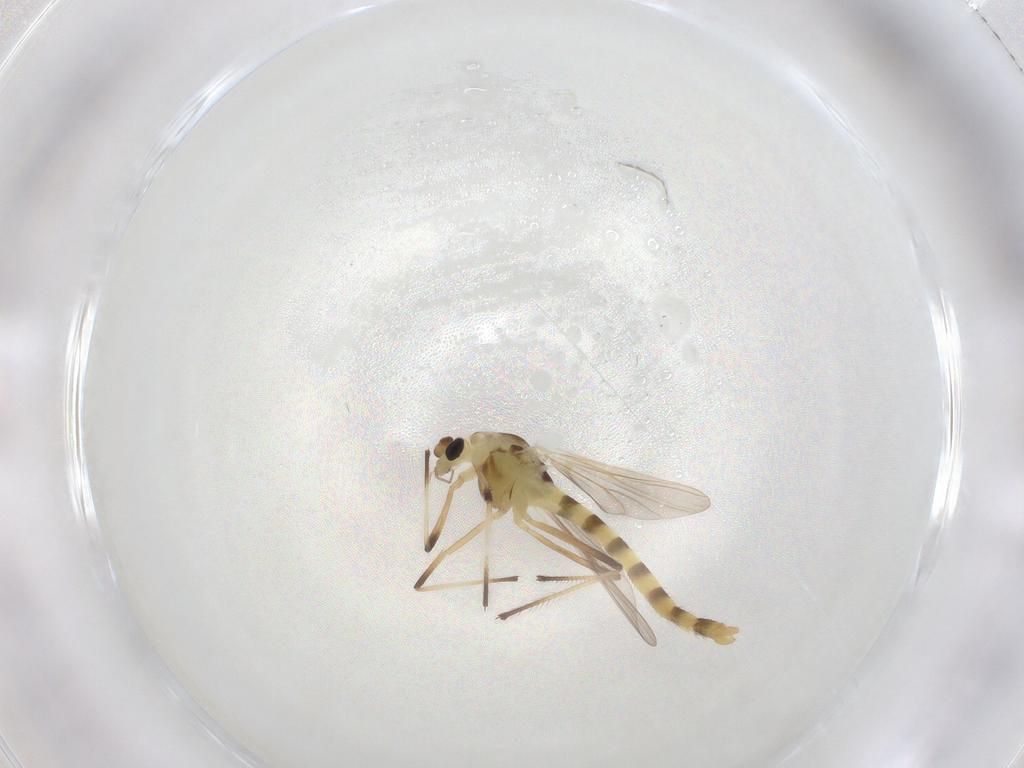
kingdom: Animalia
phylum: Arthropoda
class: Insecta
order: Diptera
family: Chironomidae
